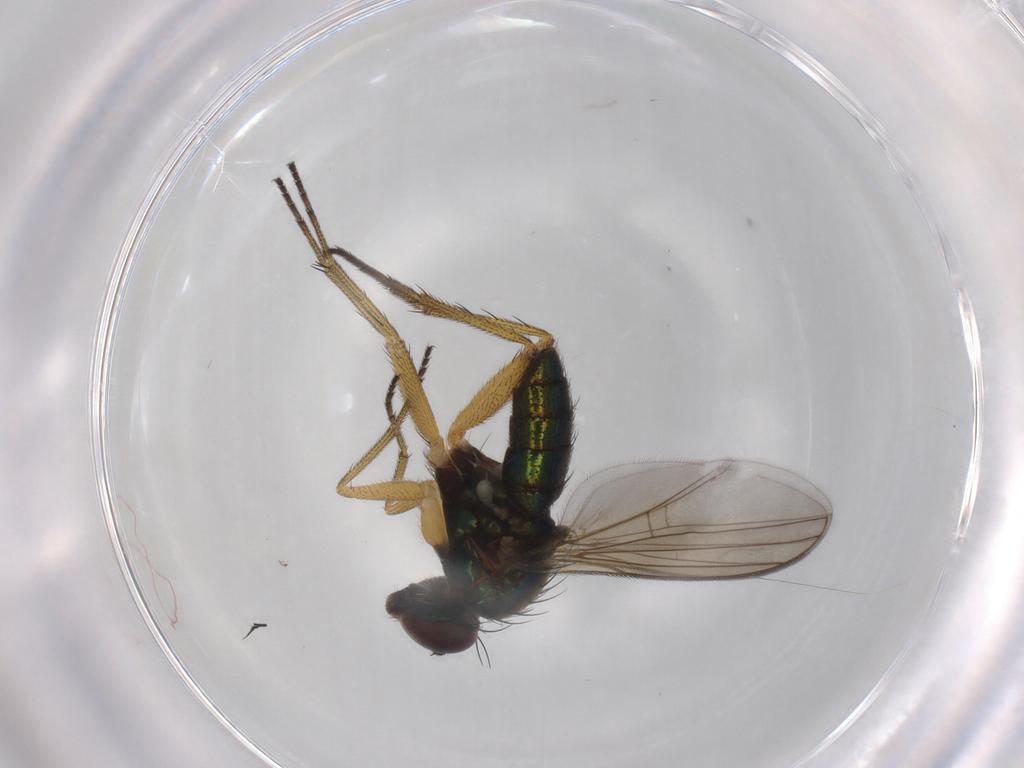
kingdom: Animalia
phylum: Arthropoda
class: Insecta
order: Diptera
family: Dolichopodidae
